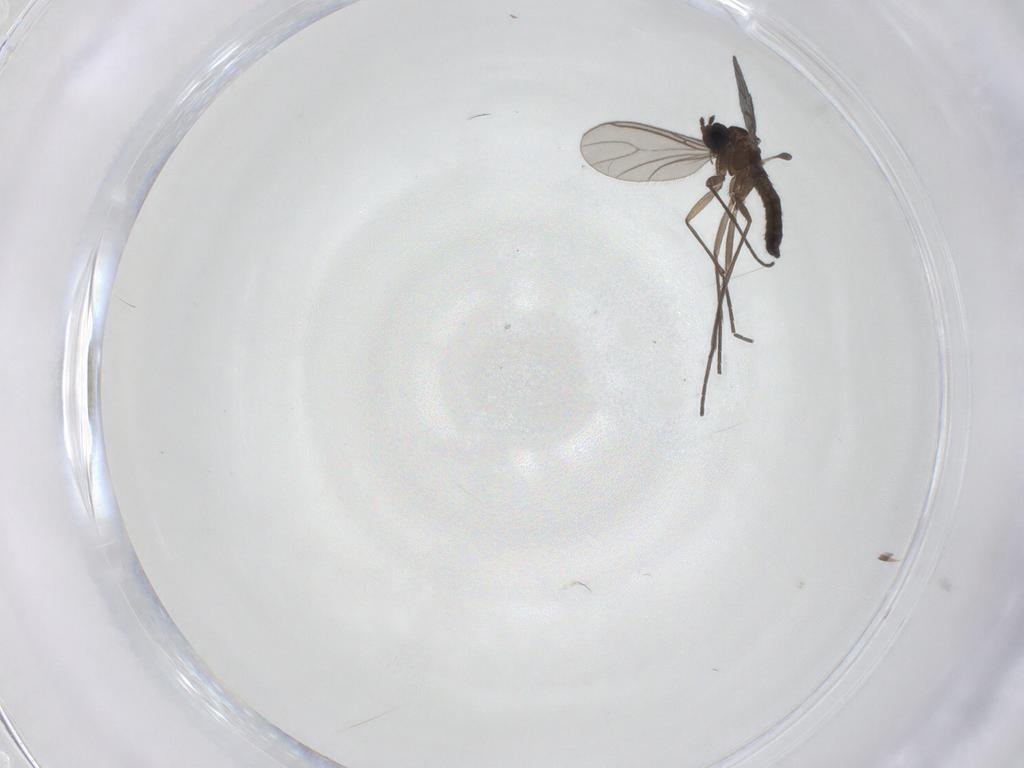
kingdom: Animalia
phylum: Arthropoda
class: Insecta
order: Diptera
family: Sciaridae
